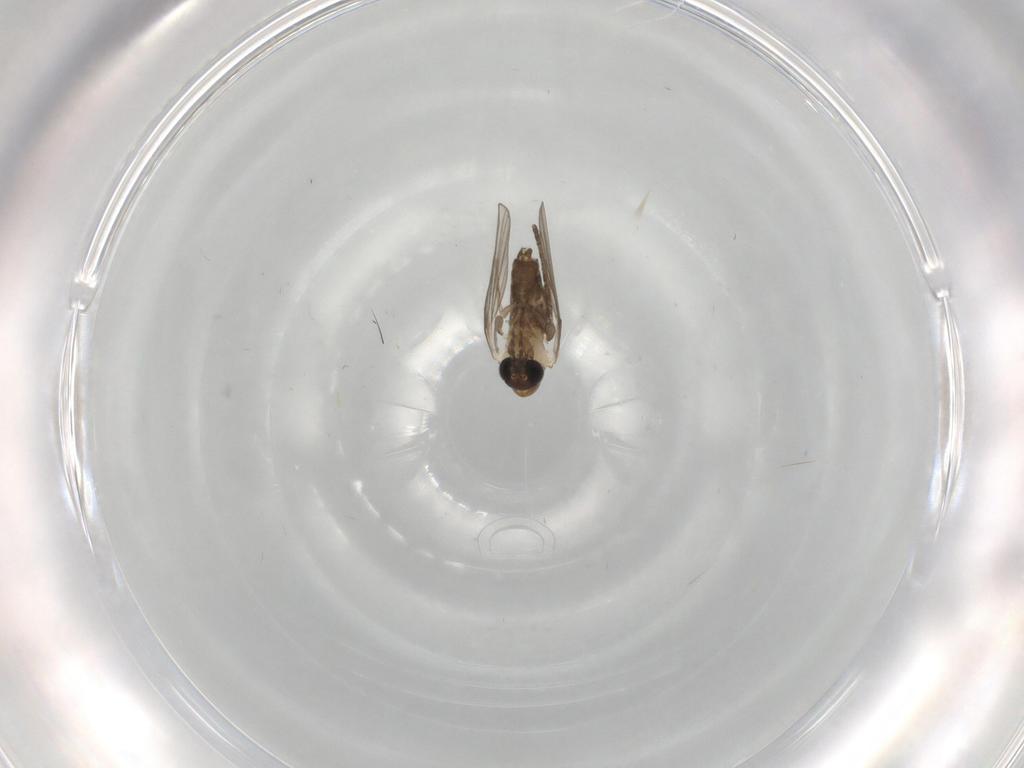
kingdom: Animalia
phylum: Arthropoda
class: Insecta
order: Diptera
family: Psychodidae
